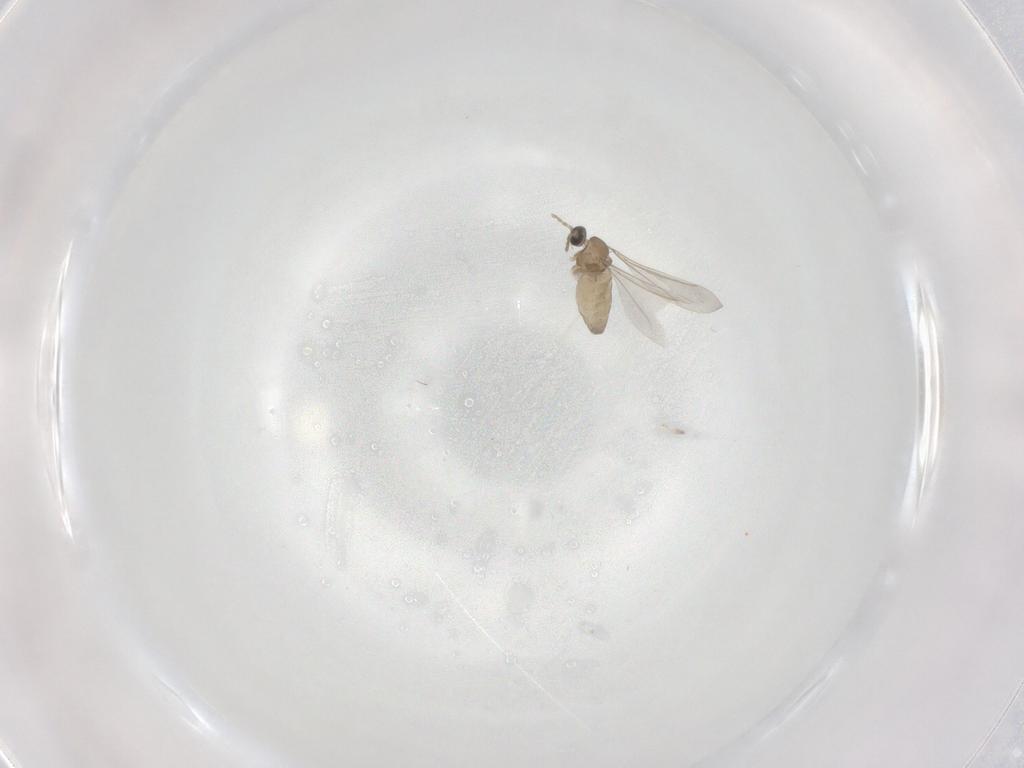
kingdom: Animalia
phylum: Arthropoda
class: Insecta
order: Diptera
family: Cecidomyiidae
